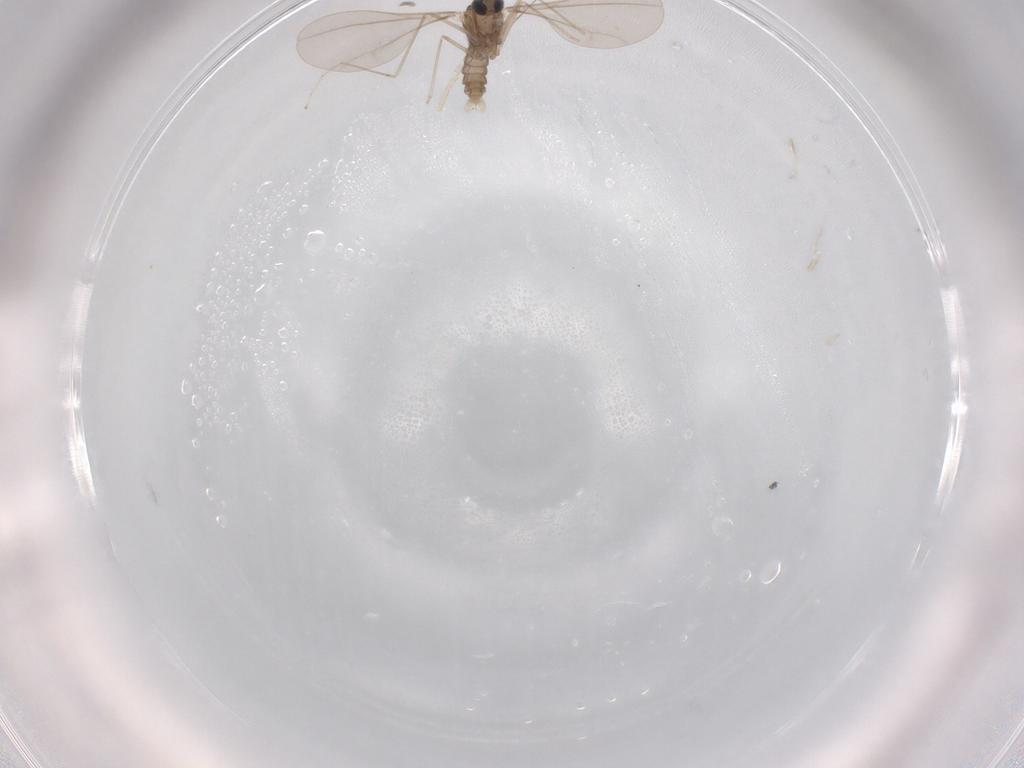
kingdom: Animalia
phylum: Arthropoda
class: Insecta
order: Diptera
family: Cecidomyiidae
